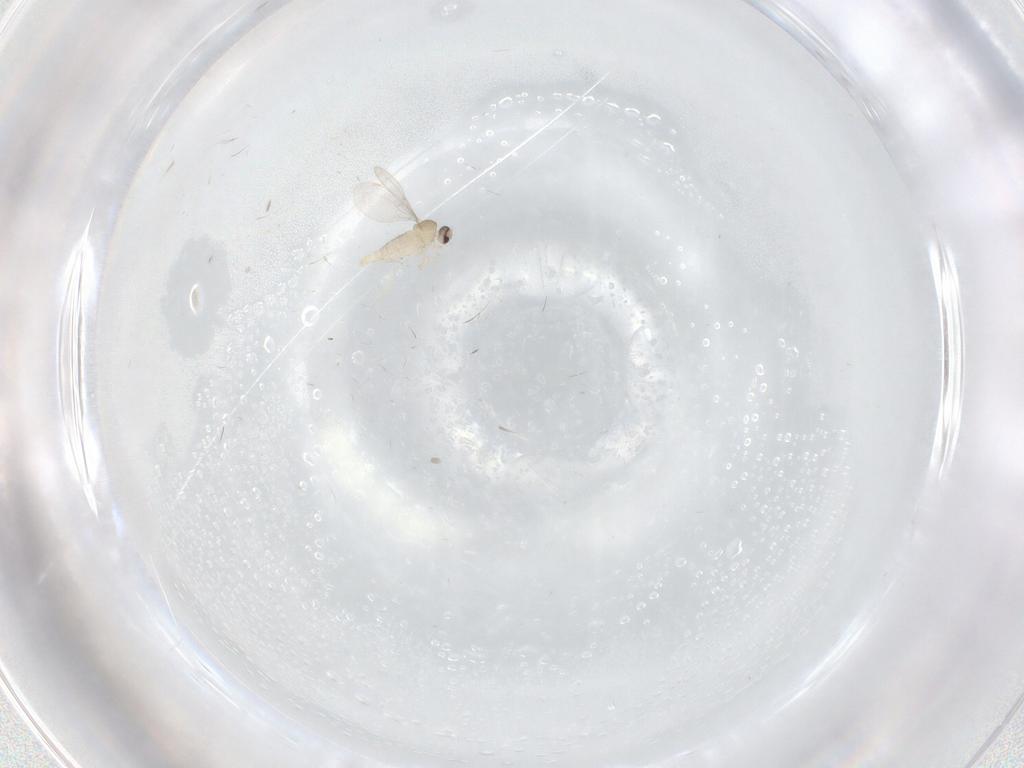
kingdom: Animalia
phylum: Arthropoda
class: Insecta
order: Diptera
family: Cecidomyiidae
